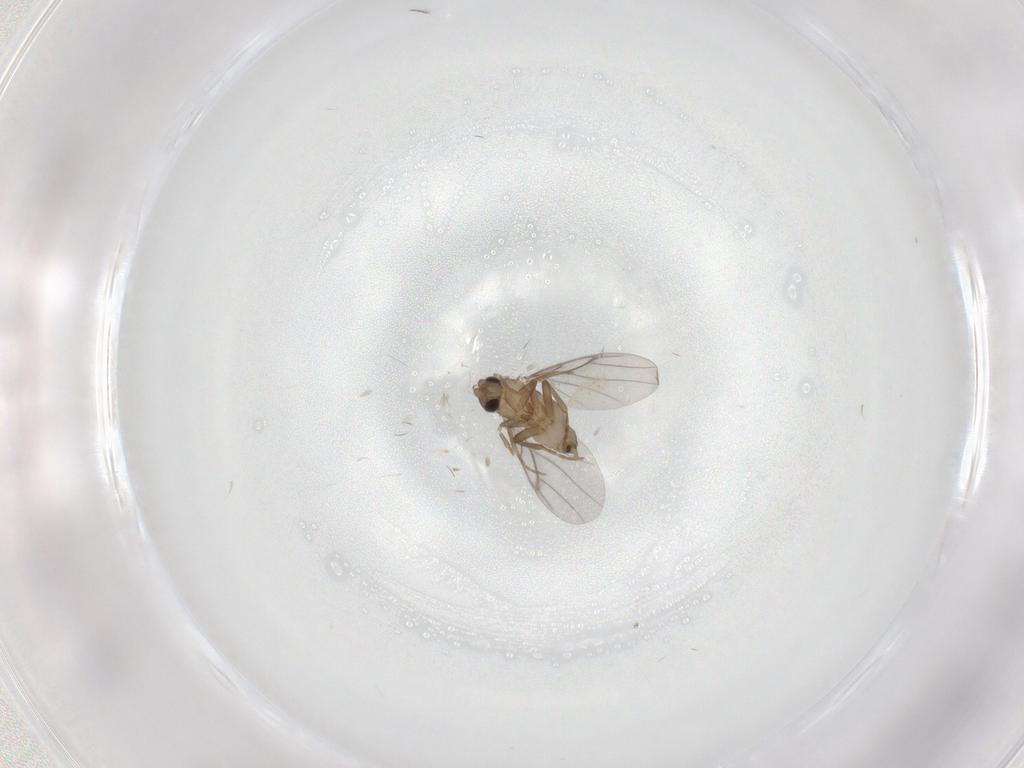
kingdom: Animalia
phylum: Arthropoda
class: Insecta
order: Diptera
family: Chironomidae
